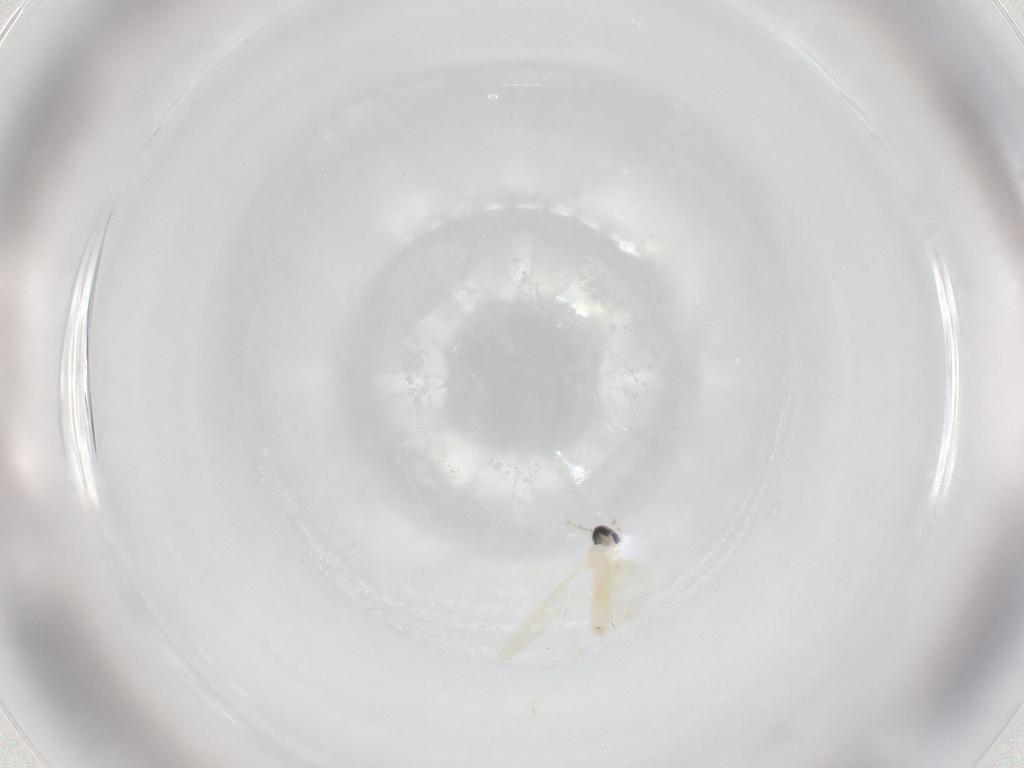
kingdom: Animalia
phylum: Arthropoda
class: Insecta
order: Diptera
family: Cecidomyiidae
